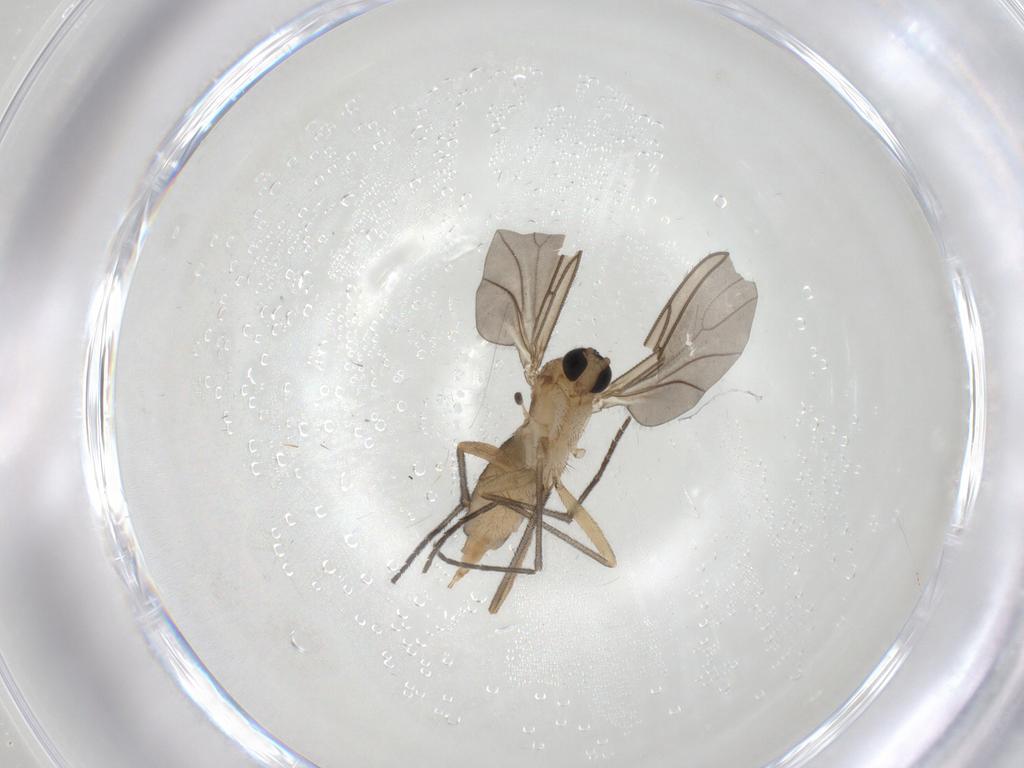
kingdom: Animalia
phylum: Arthropoda
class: Insecta
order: Diptera
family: Sciaridae
